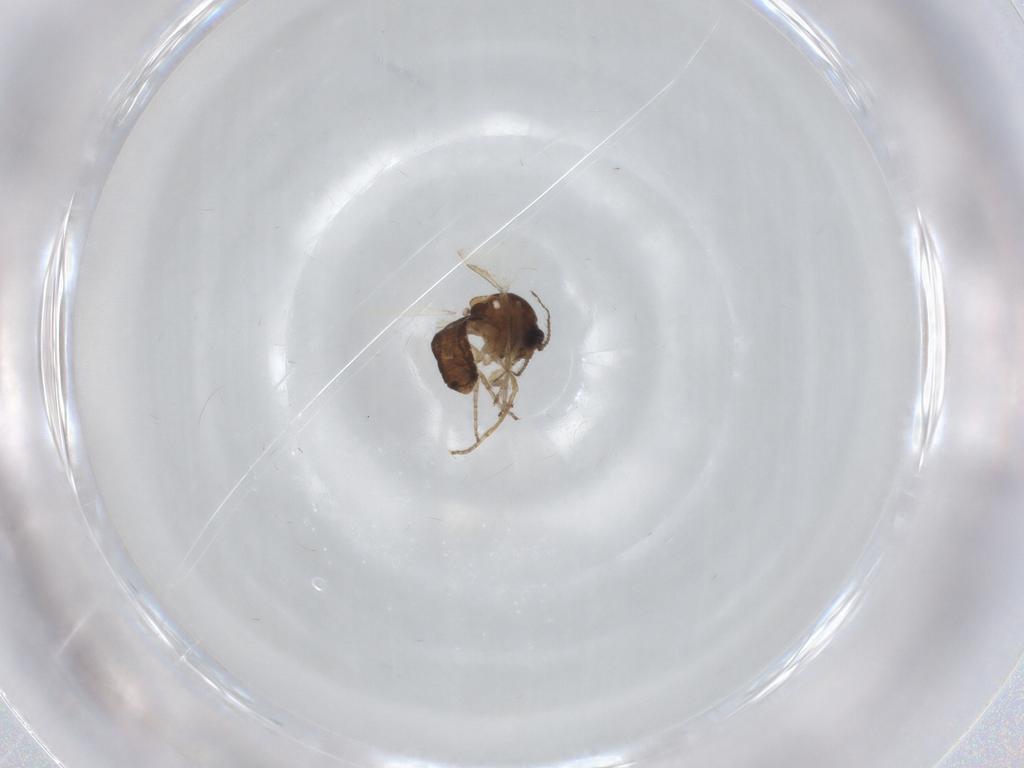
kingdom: Animalia
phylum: Arthropoda
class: Insecta
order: Diptera
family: Ceratopogonidae
